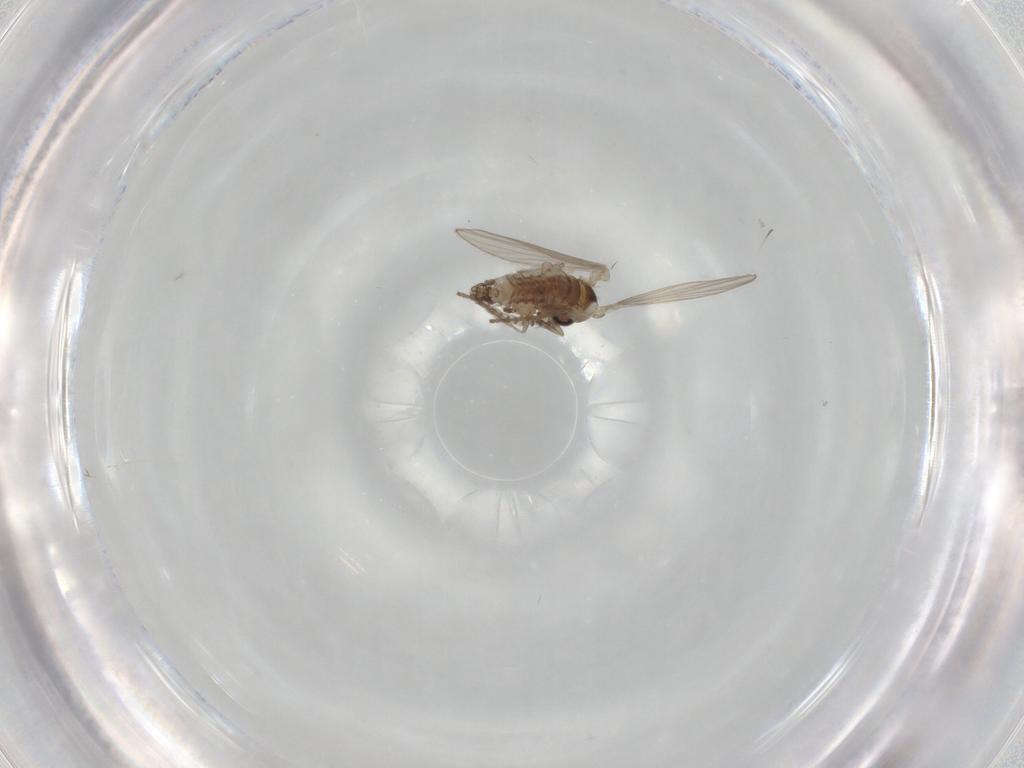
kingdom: Animalia
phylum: Arthropoda
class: Insecta
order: Diptera
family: Psychodidae
